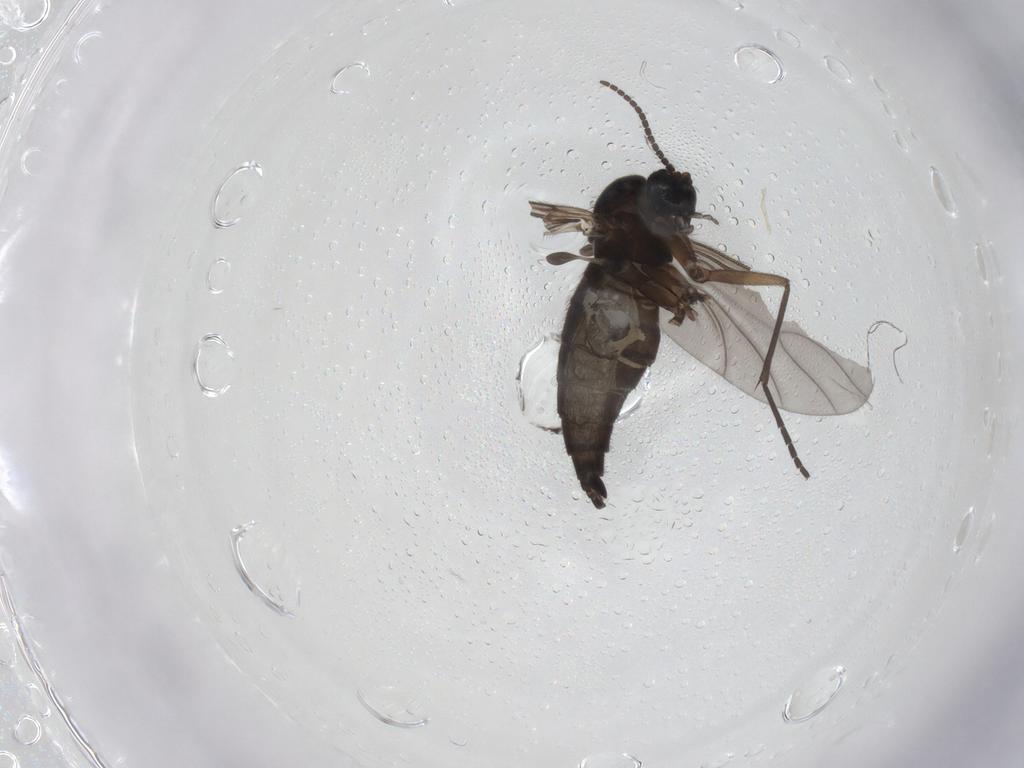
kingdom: Animalia
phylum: Arthropoda
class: Insecta
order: Diptera
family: Sciaridae
